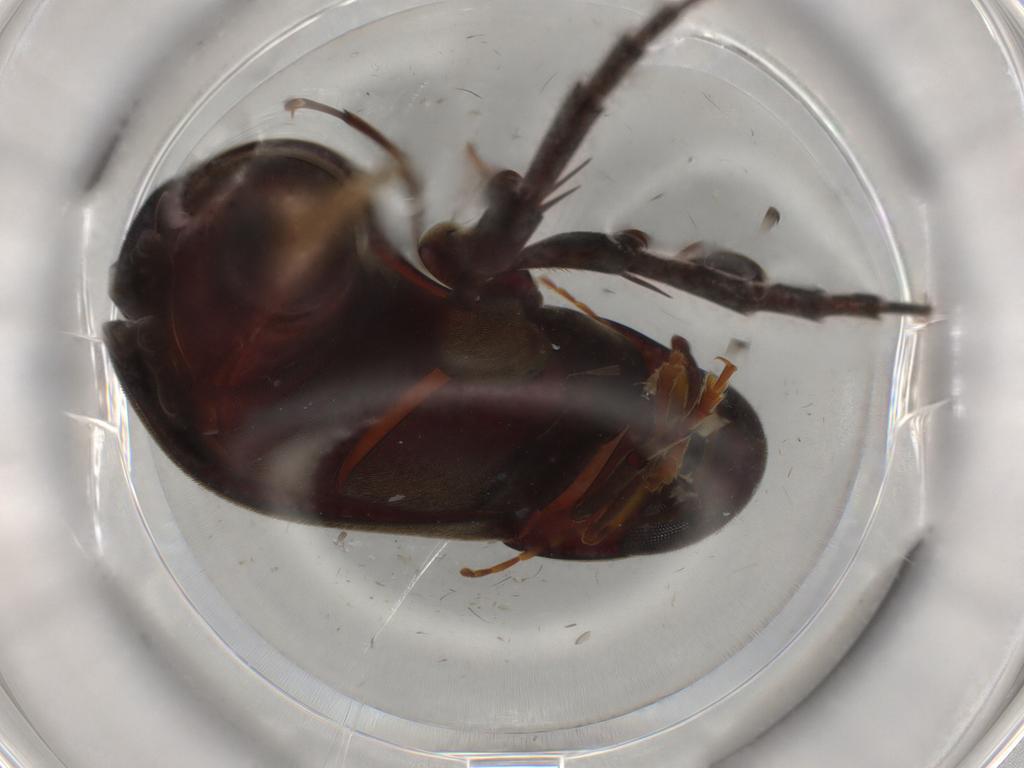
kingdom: Animalia
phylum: Arthropoda
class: Insecta
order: Coleoptera
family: Mordellidae
